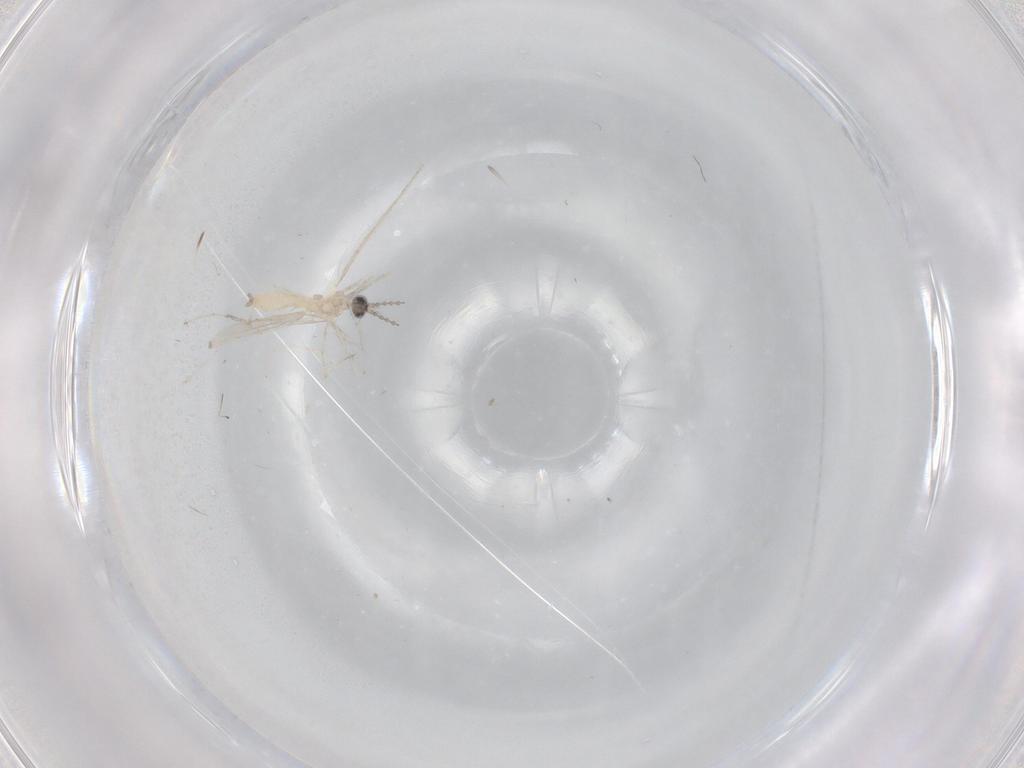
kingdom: Animalia
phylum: Arthropoda
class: Insecta
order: Diptera
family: Cecidomyiidae
